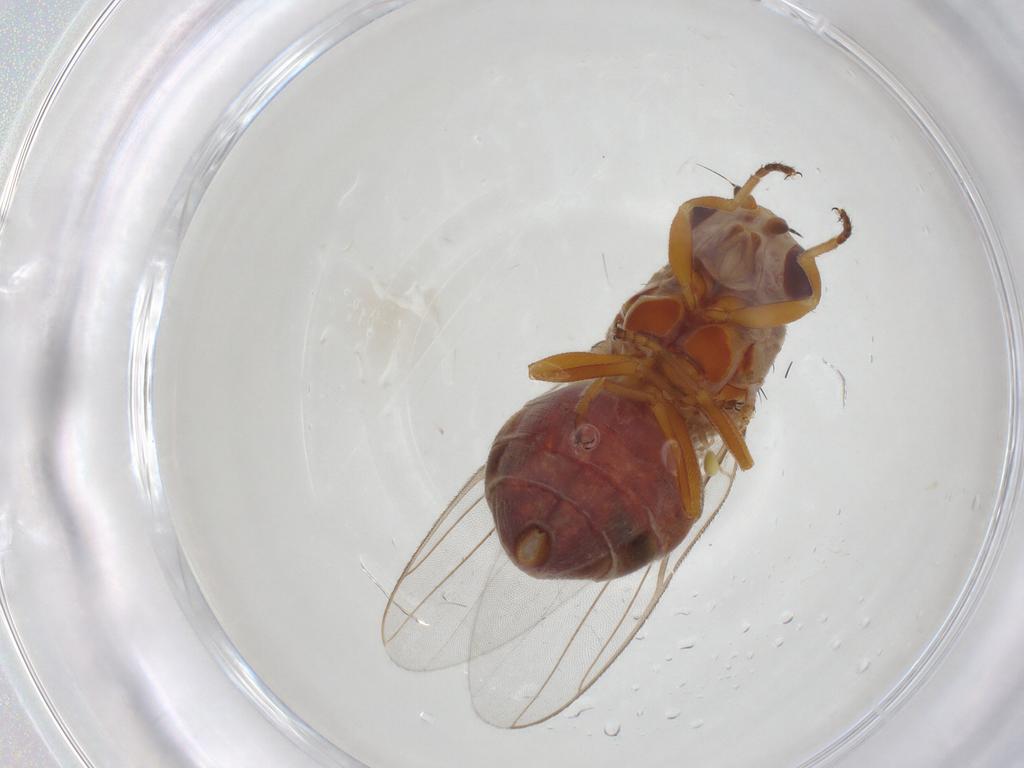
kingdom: Animalia
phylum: Arthropoda
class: Insecta
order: Diptera
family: Chloropidae
